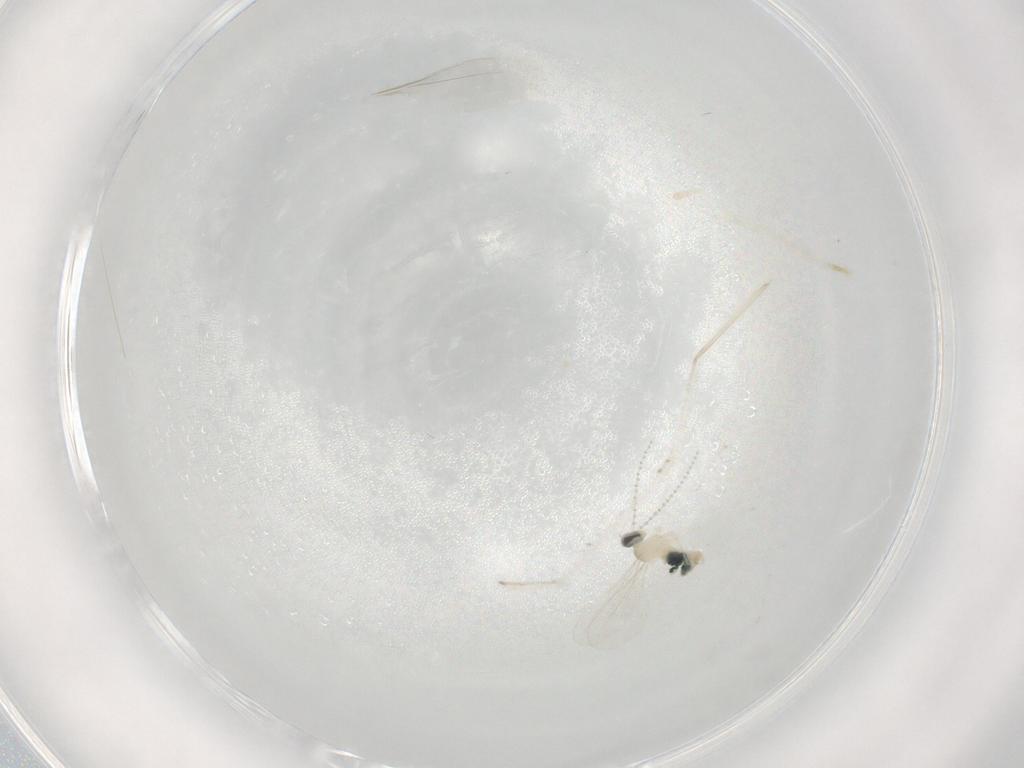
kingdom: Animalia
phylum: Arthropoda
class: Insecta
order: Diptera
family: Cecidomyiidae
